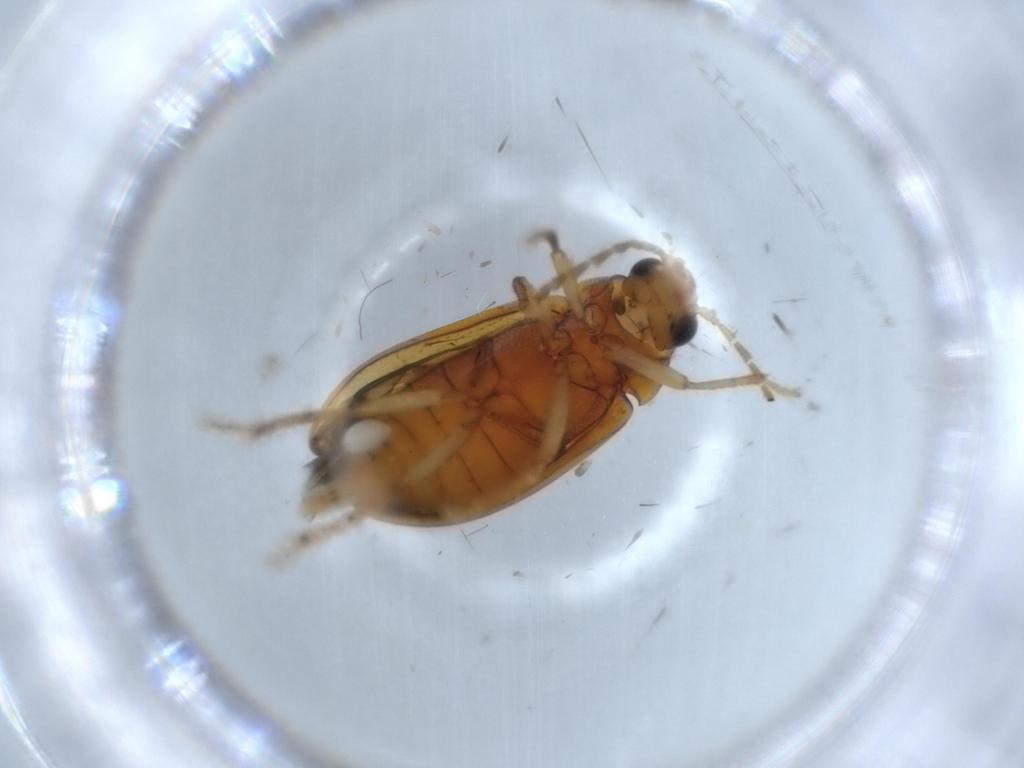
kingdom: Animalia
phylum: Arthropoda
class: Insecta
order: Coleoptera
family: Ptilodactylidae
